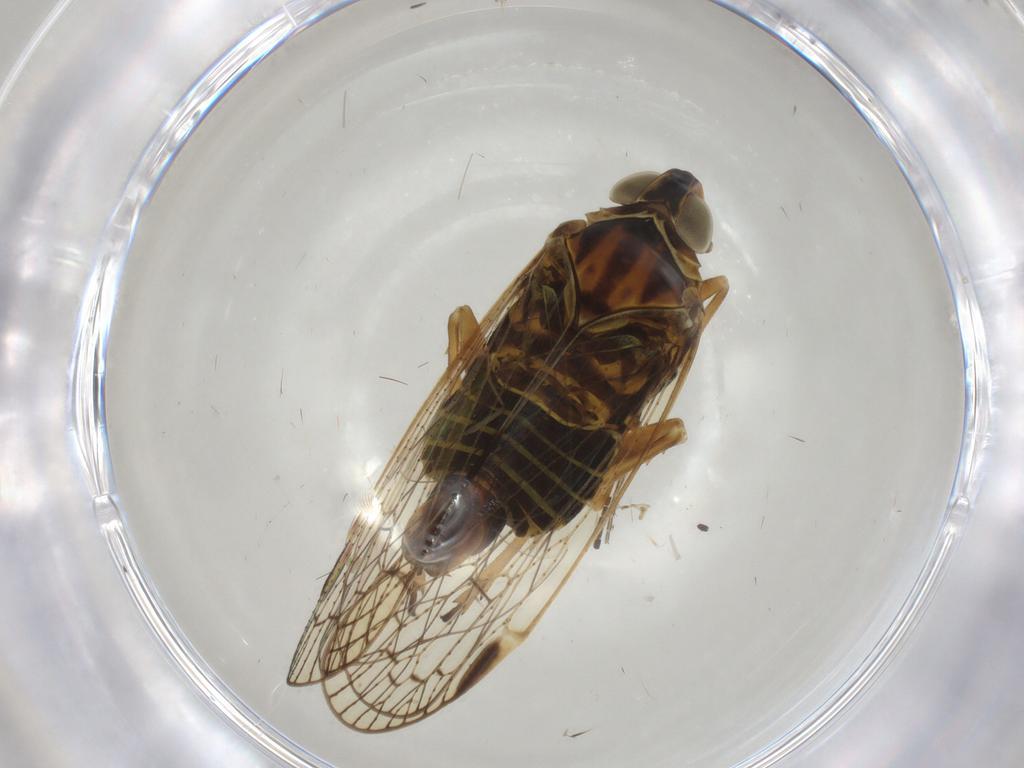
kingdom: Animalia
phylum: Arthropoda
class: Insecta
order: Hemiptera
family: Cixiidae
